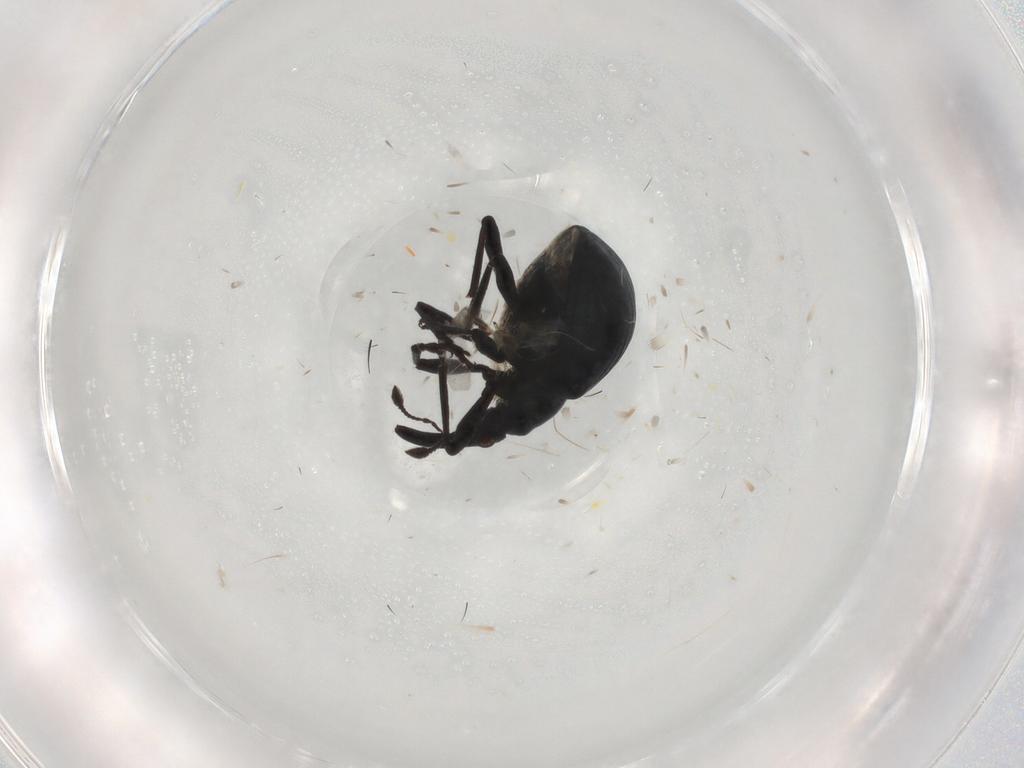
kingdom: Animalia
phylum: Arthropoda
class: Insecta
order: Coleoptera
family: Apionidae
